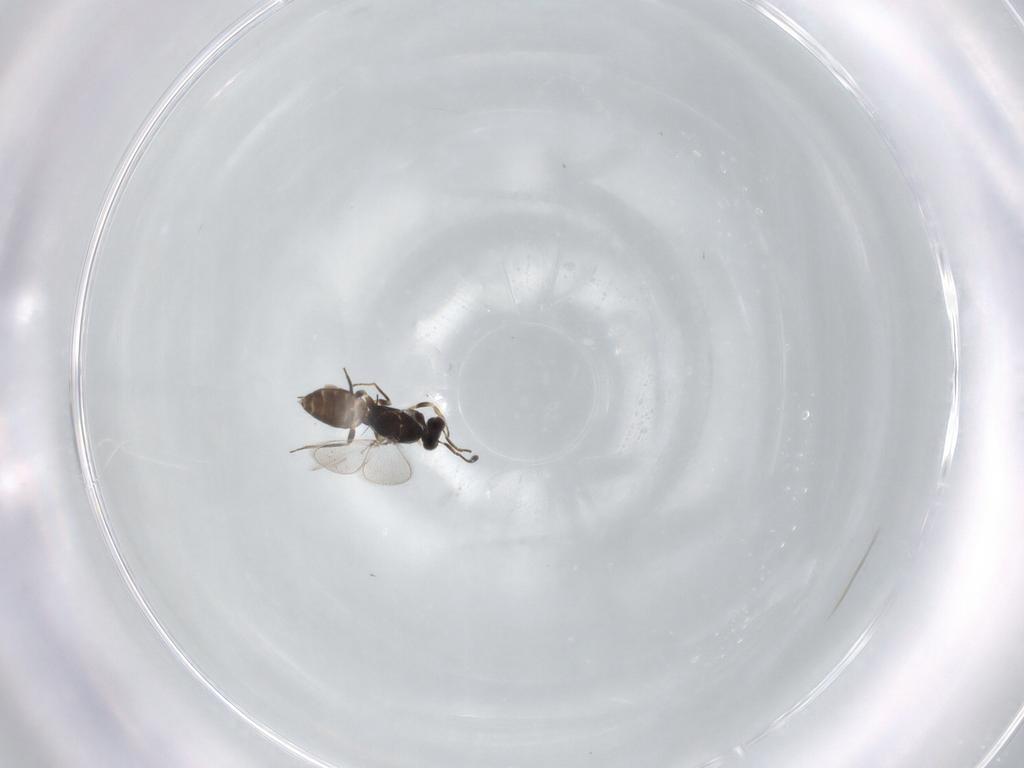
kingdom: Animalia
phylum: Arthropoda
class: Insecta
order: Hymenoptera
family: Mymaridae
